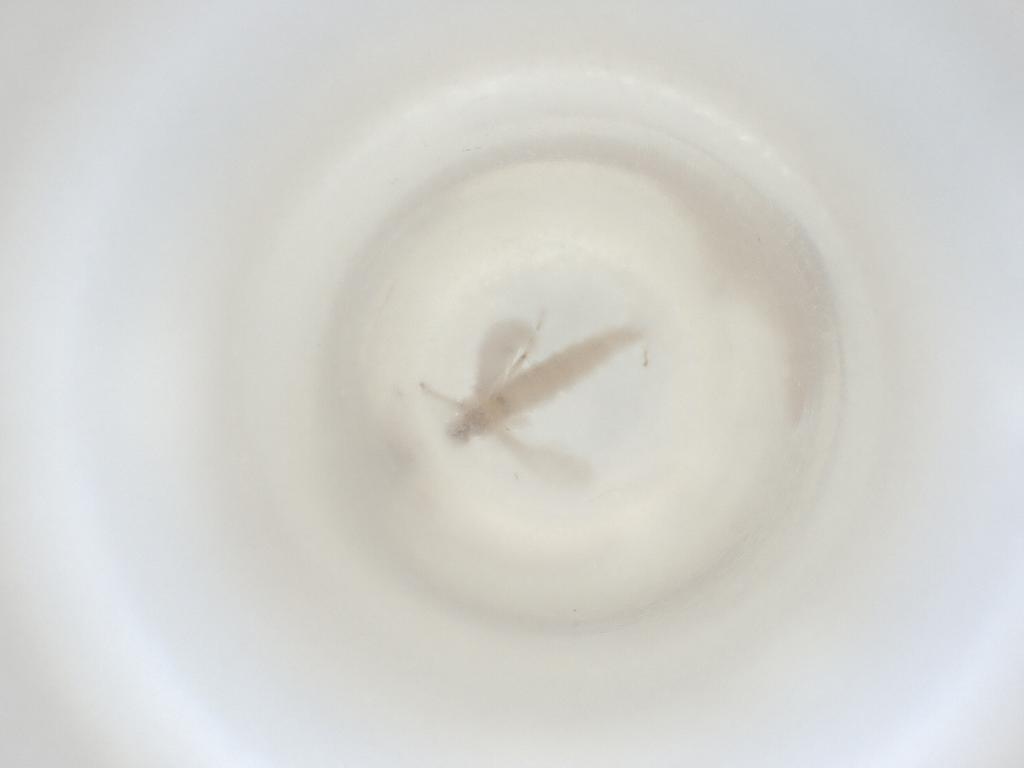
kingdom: Animalia
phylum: Arthropoda
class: Insecta
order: Diptera
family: Cecidomyiidae
